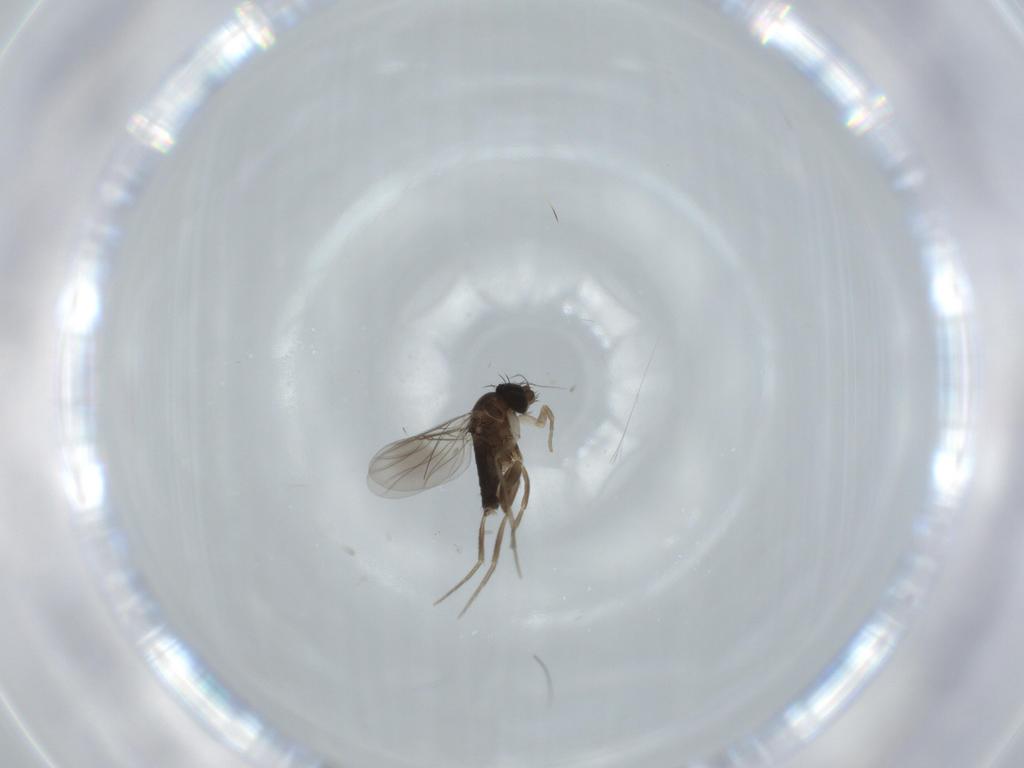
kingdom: Animalia
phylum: Arthropoda
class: Insecta
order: Diptera
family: Phoridae
